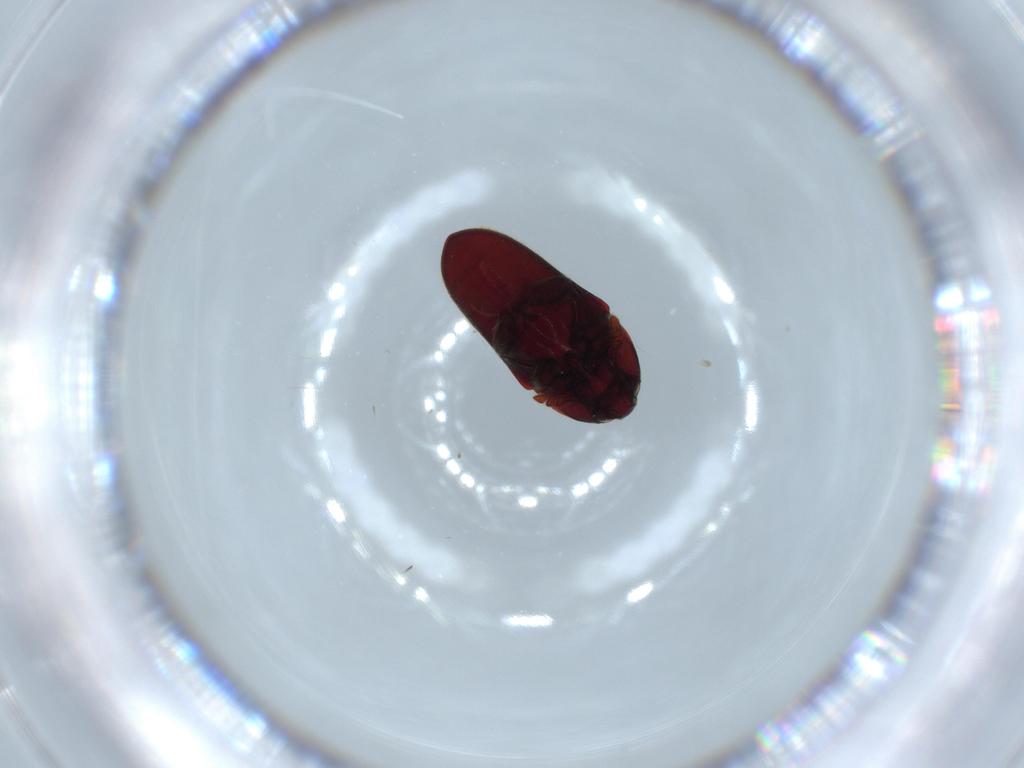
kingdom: Animalia
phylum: Arthropoda
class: Insecta
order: Coleoptera
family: Throscidae
